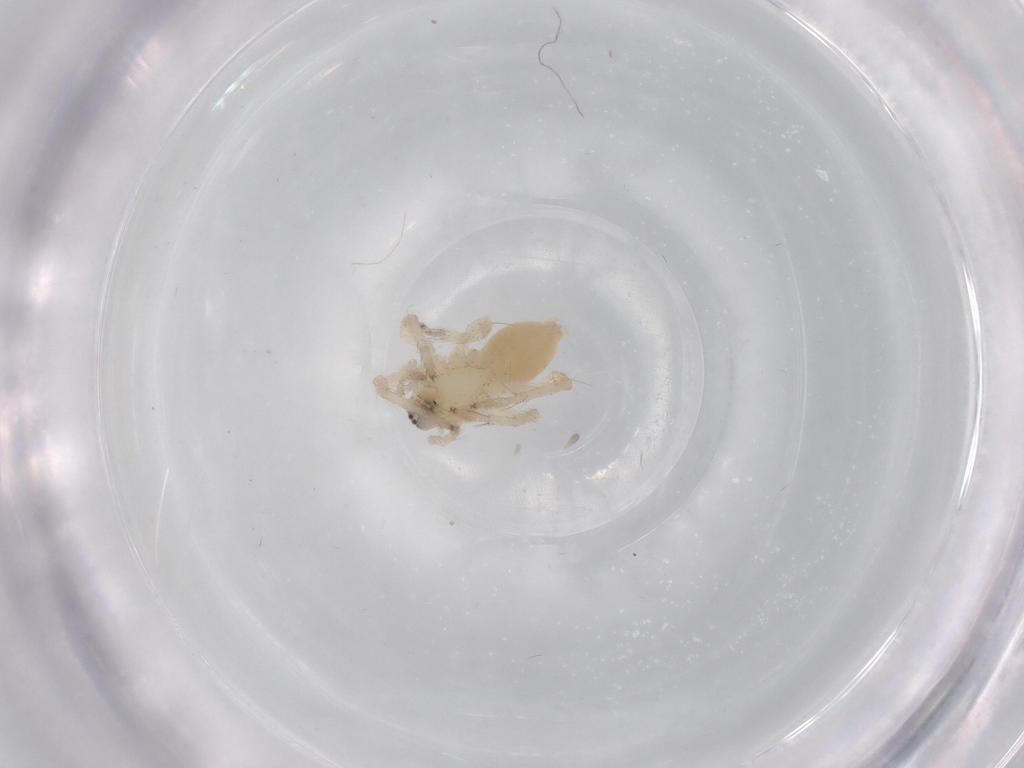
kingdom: Animalia
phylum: Arthropoda
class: Arachnida
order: Araneae
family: Anyphaenidae
